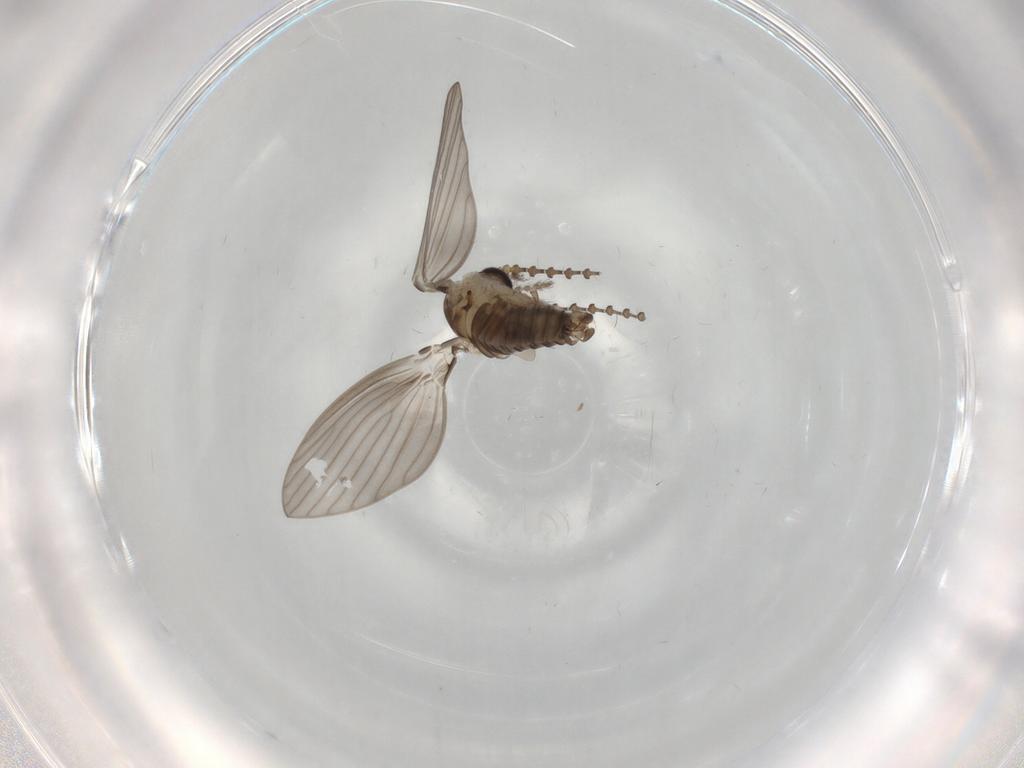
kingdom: Animalia
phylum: Arthropoda
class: Insecta
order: Diptera
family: Psychodidae
